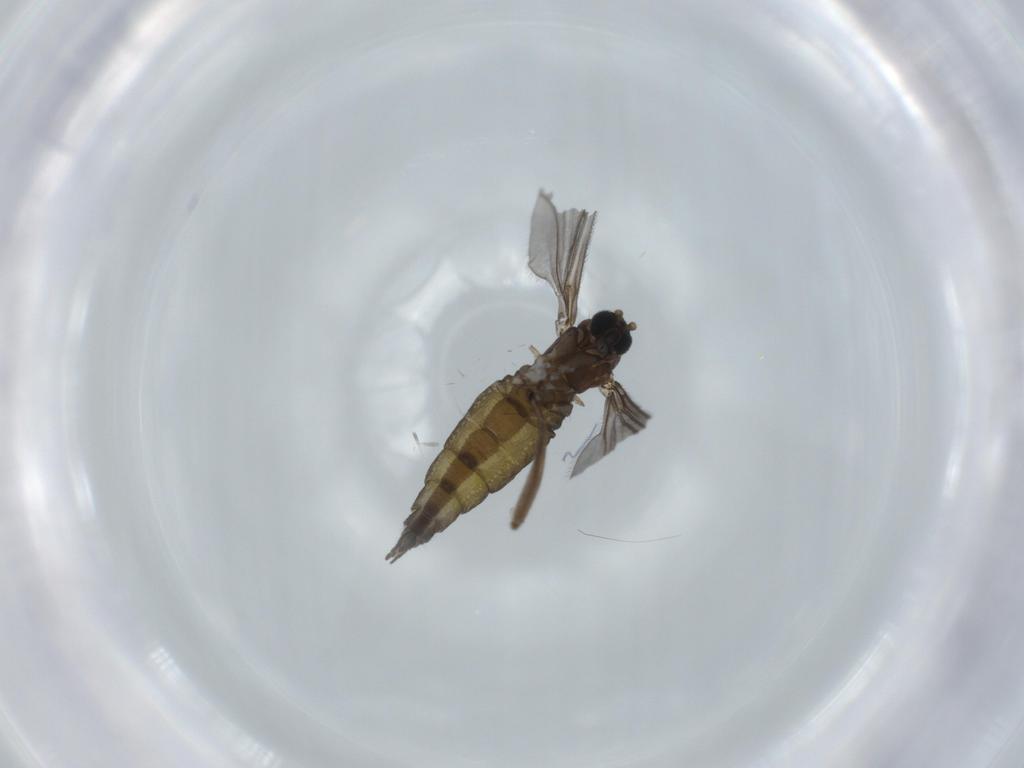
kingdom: Animalia
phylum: Arthropoda
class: Insecta
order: Diptera
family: Sciaridae
